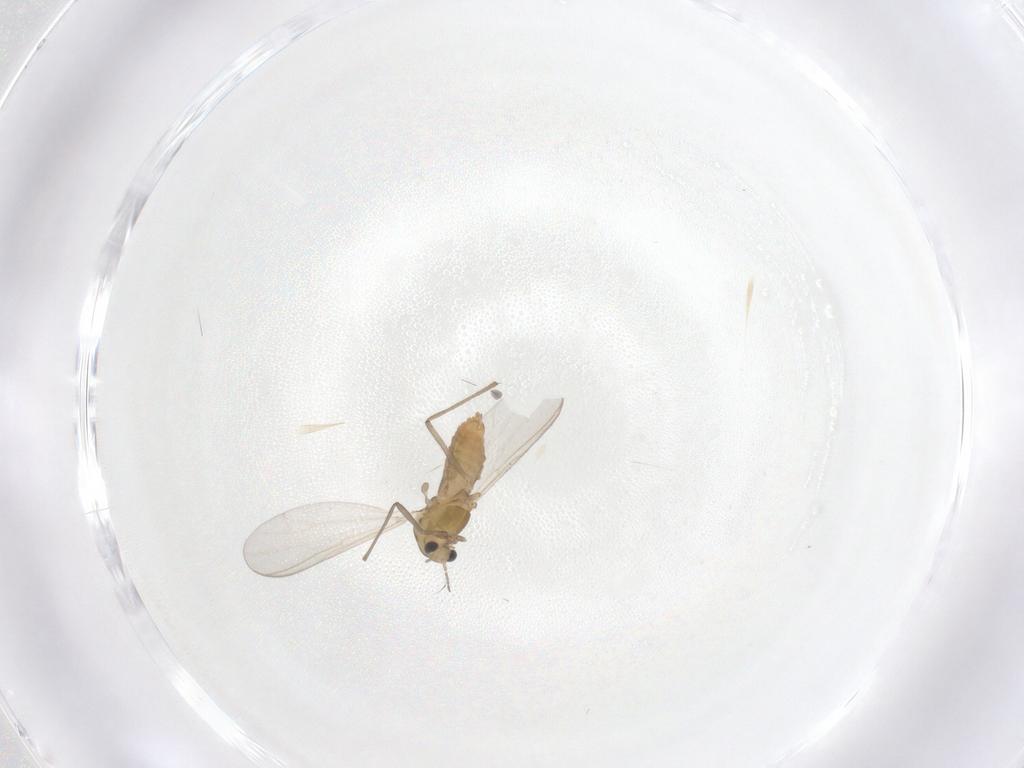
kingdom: Animalia
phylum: Arthropoda
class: Insecta
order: Diptera
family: Chironomidae
